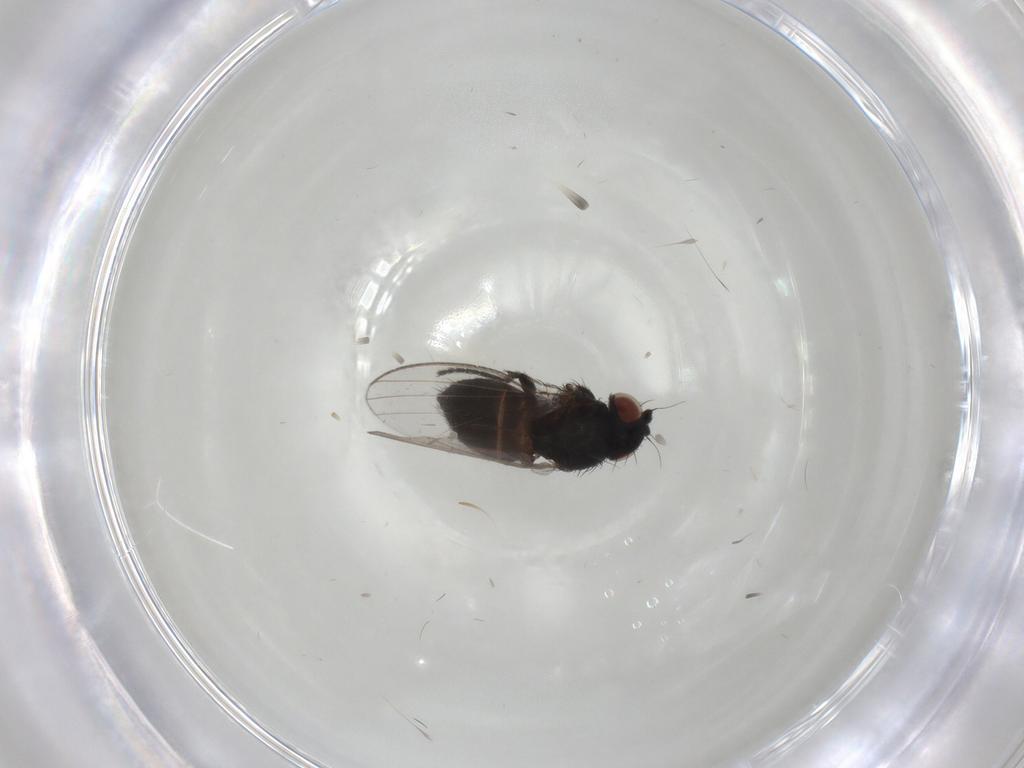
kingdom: Animalia
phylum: Arthropoda
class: Insecta
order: Diptera
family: Milichiidae
